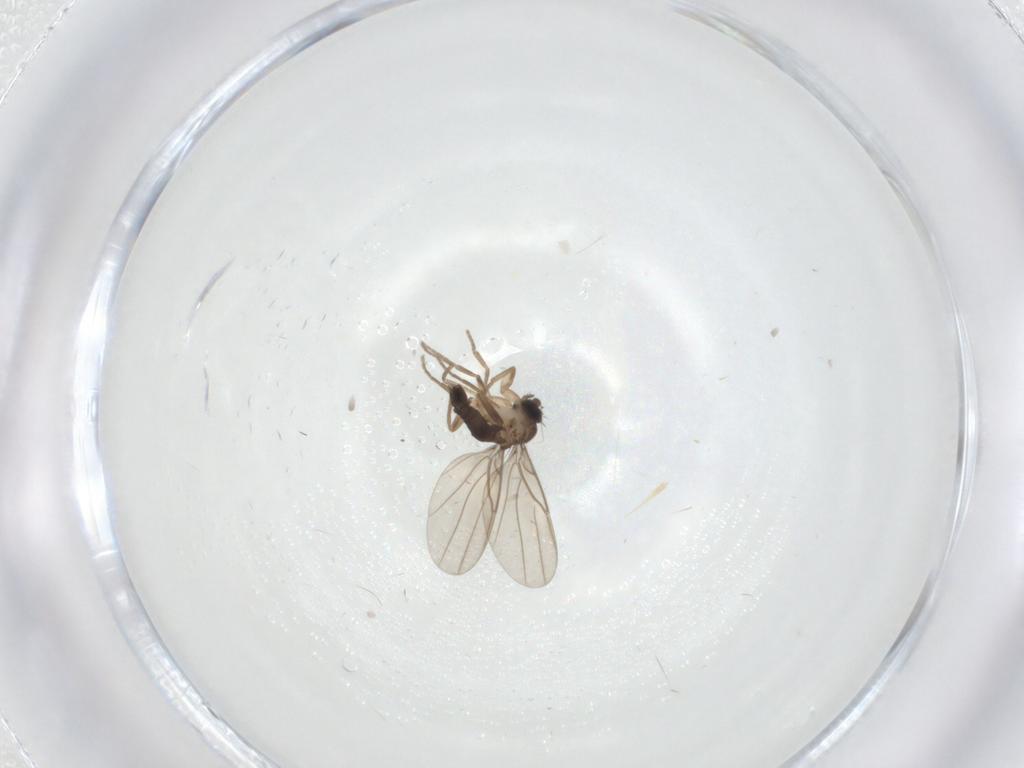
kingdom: Animalia
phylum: Arthropoda
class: Insecta
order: Diptera
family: Phoridae
